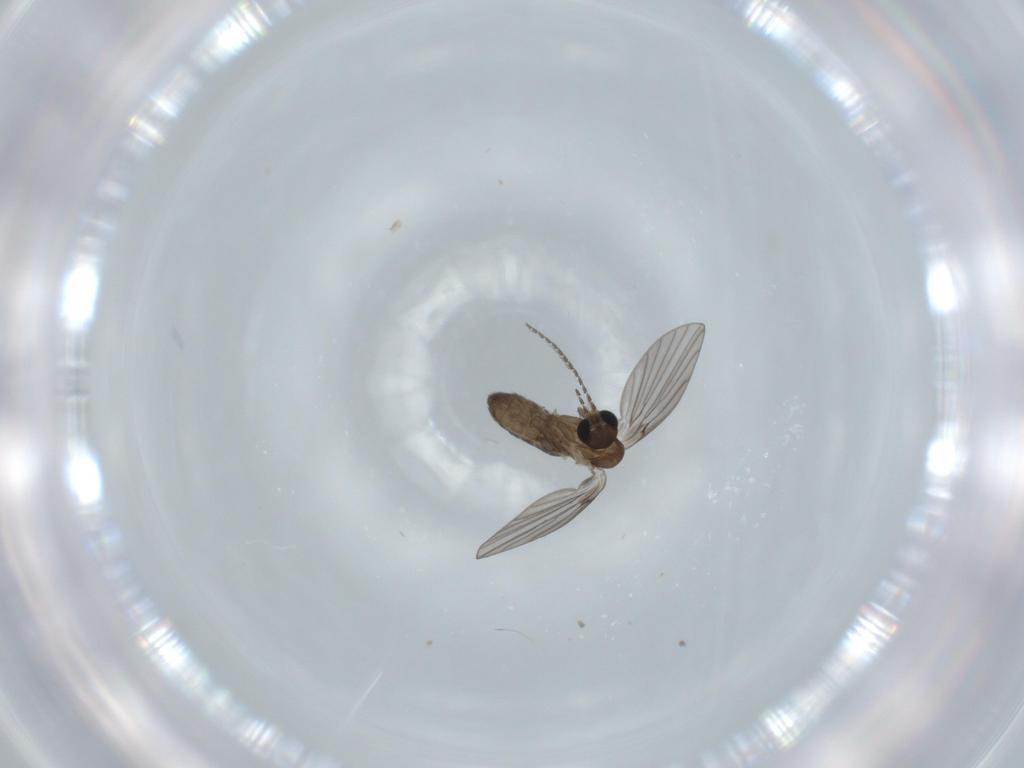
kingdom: Animalia
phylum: Arthropoda
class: Insecta
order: Diptera
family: Psychodidae
